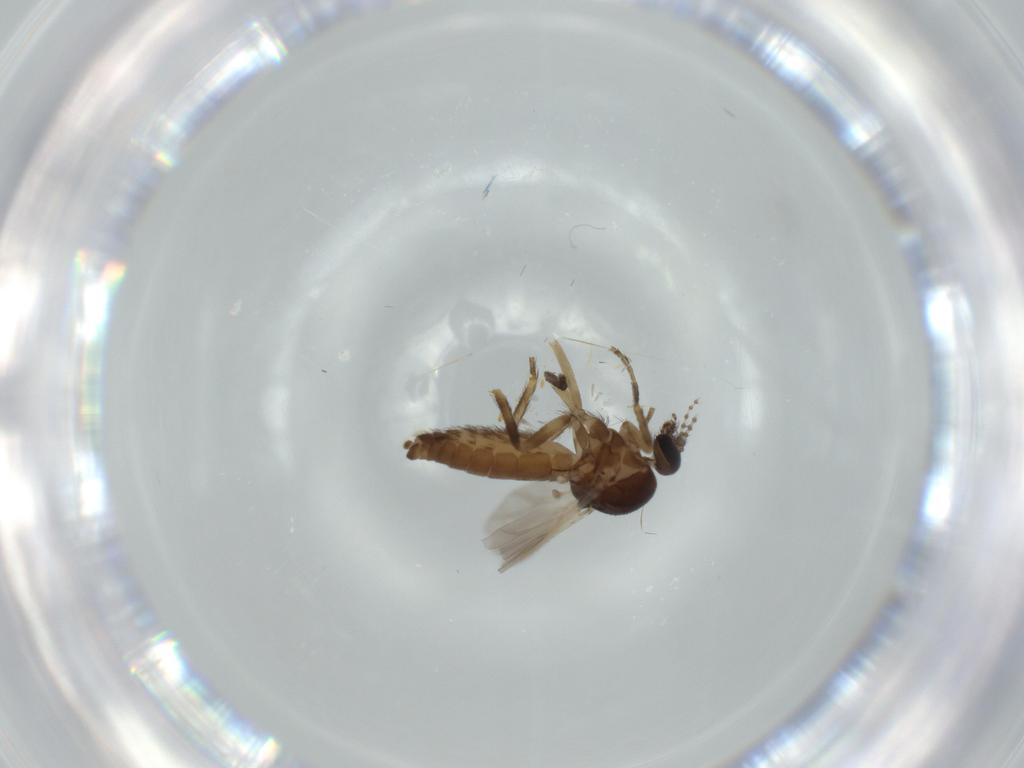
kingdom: Animalia
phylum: Arthropoda
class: Insecta
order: Diptera
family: Ceratopogonidae
